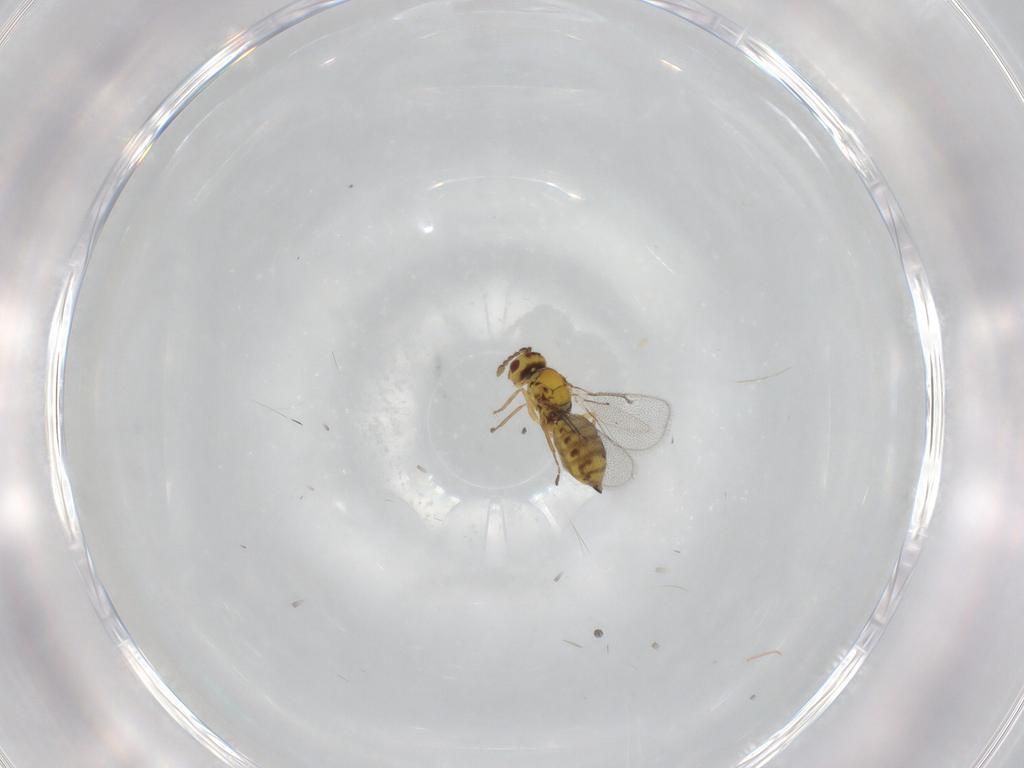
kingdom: Animalia
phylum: Arthropoda
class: Insecta
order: Hymenoptera
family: Eulophidae
